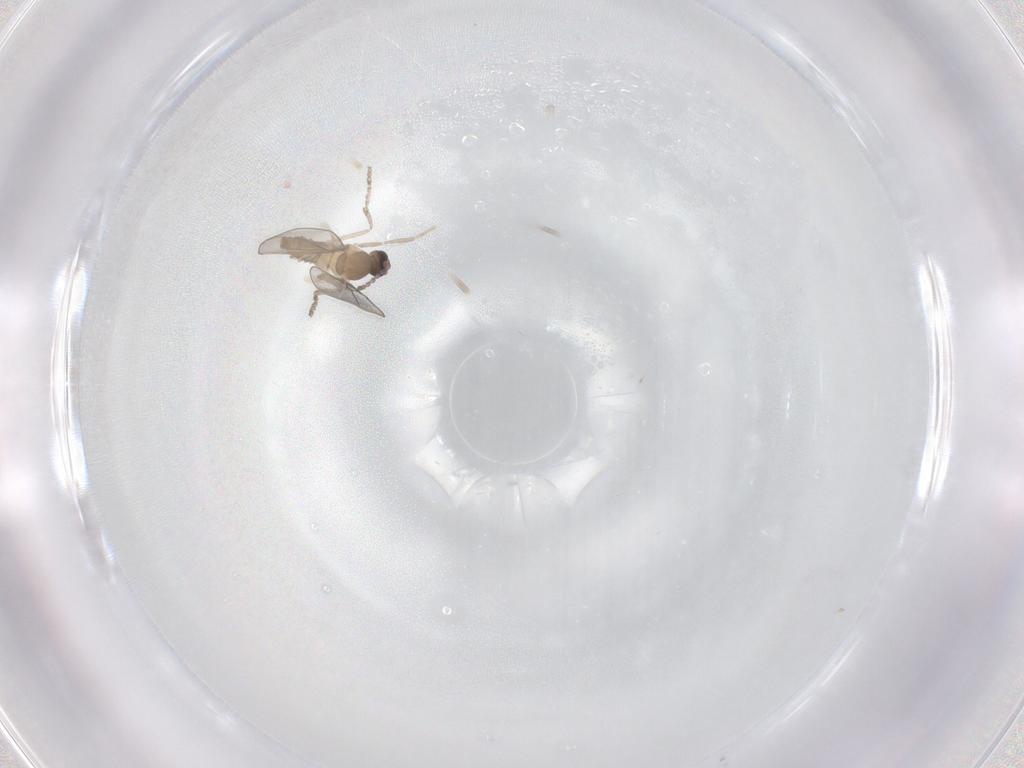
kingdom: Animalia
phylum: Arthropoda
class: Insecta
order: Diptera
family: Cecidomyiidae
